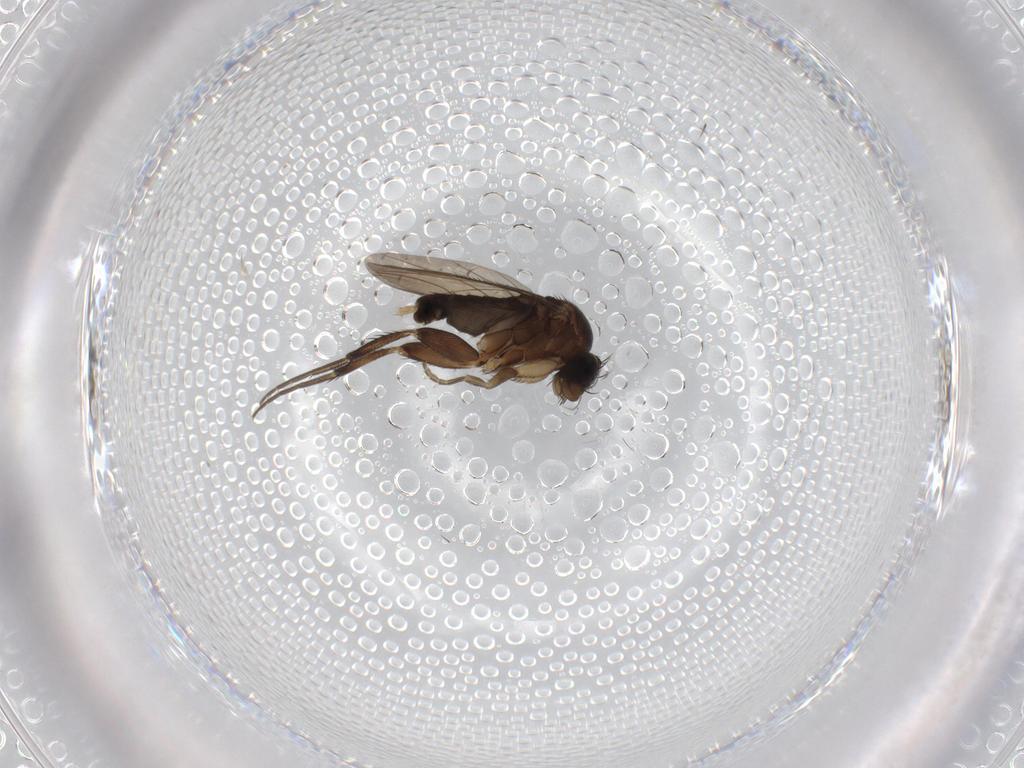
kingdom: Animalia
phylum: Arthropoda
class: Insecta
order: Diptera
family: Phoridae
